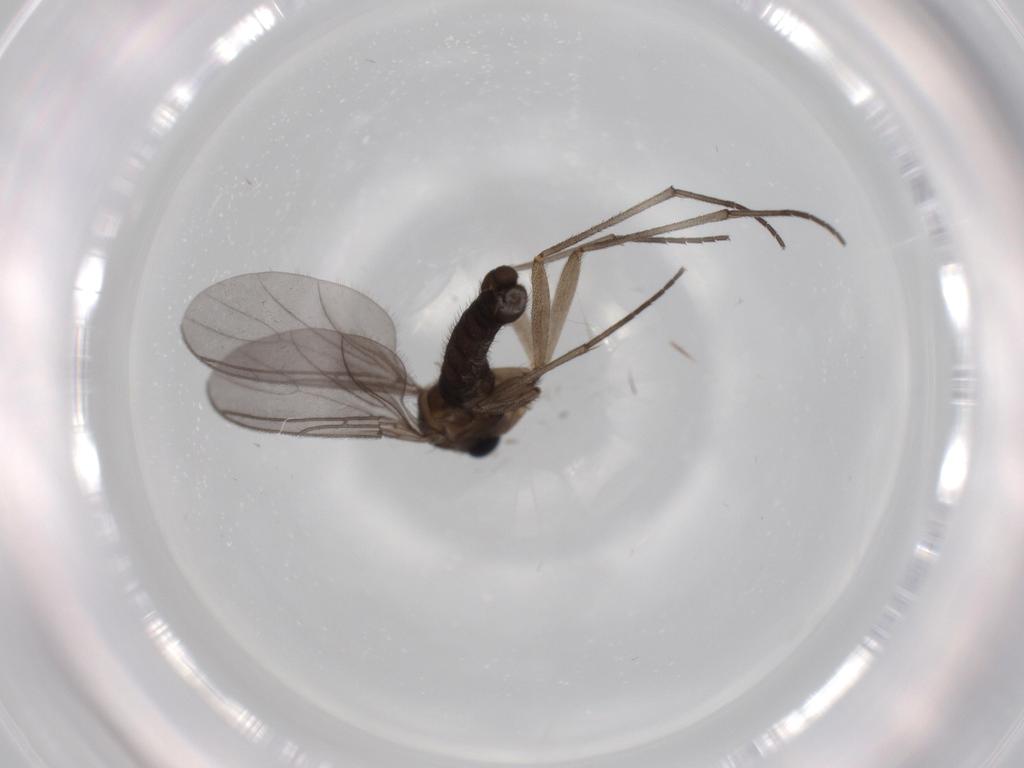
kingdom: Animalia
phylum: Arthropoda
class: Insecta
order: Diptera
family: Sciaridae
